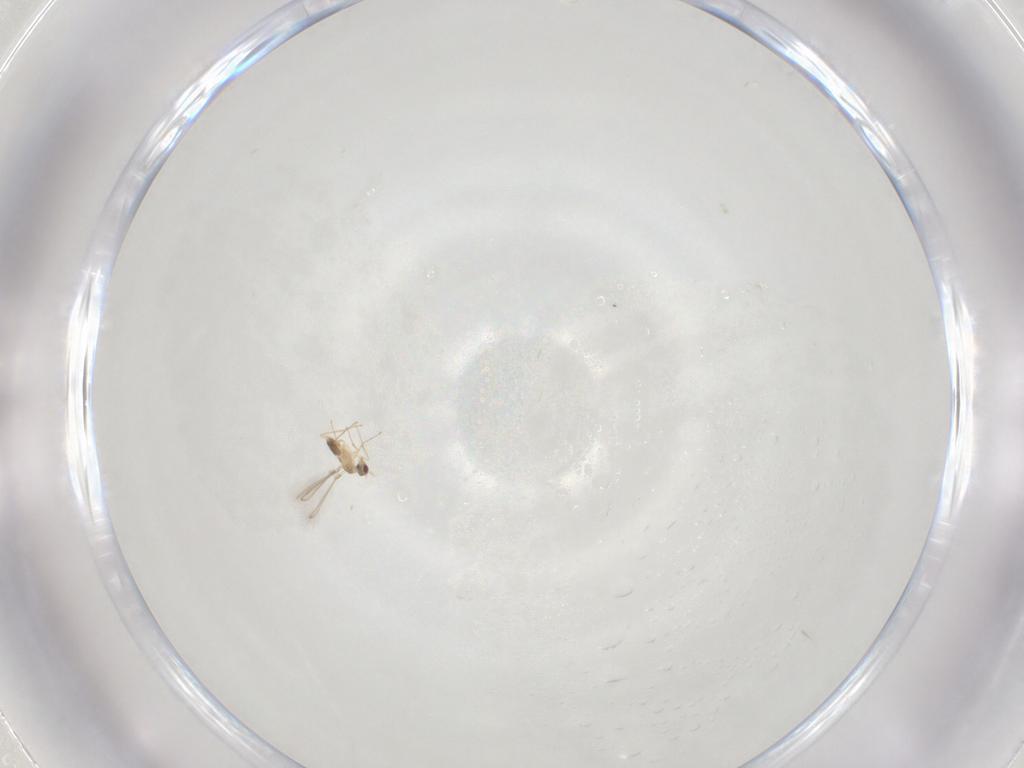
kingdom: Animalia
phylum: Arthropoda
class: Insecta
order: Hymenoptera
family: Mymaridae
